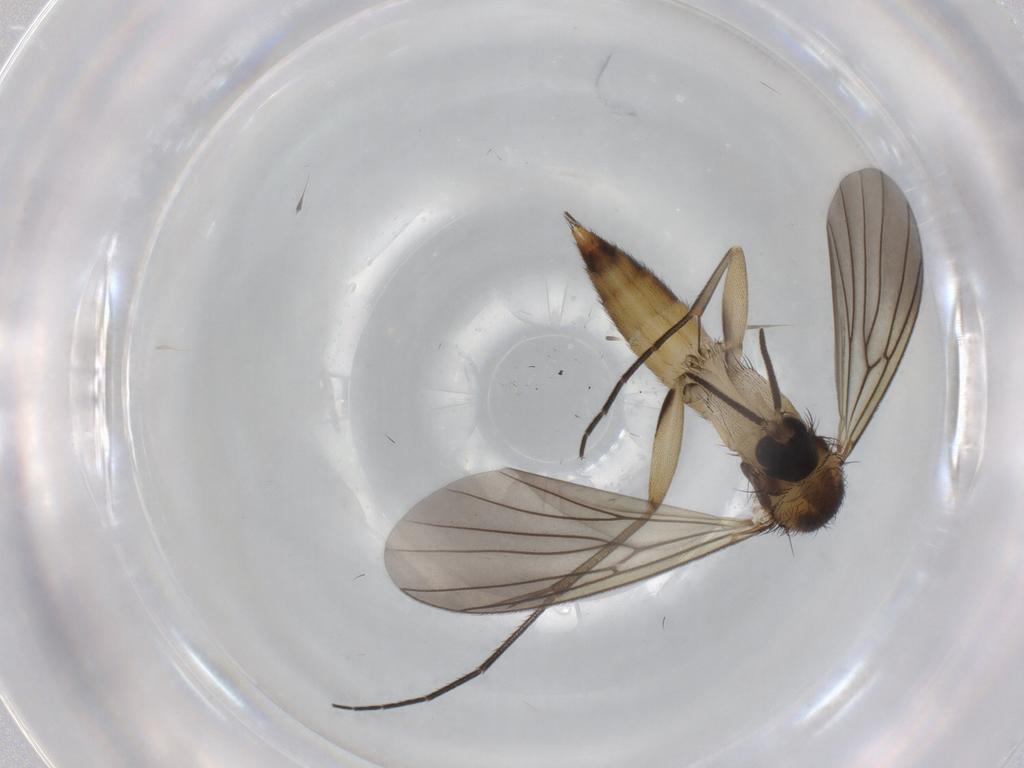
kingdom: Animalia
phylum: Arthropoda
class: Insecta
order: Diptera
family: Mycetophilidae
